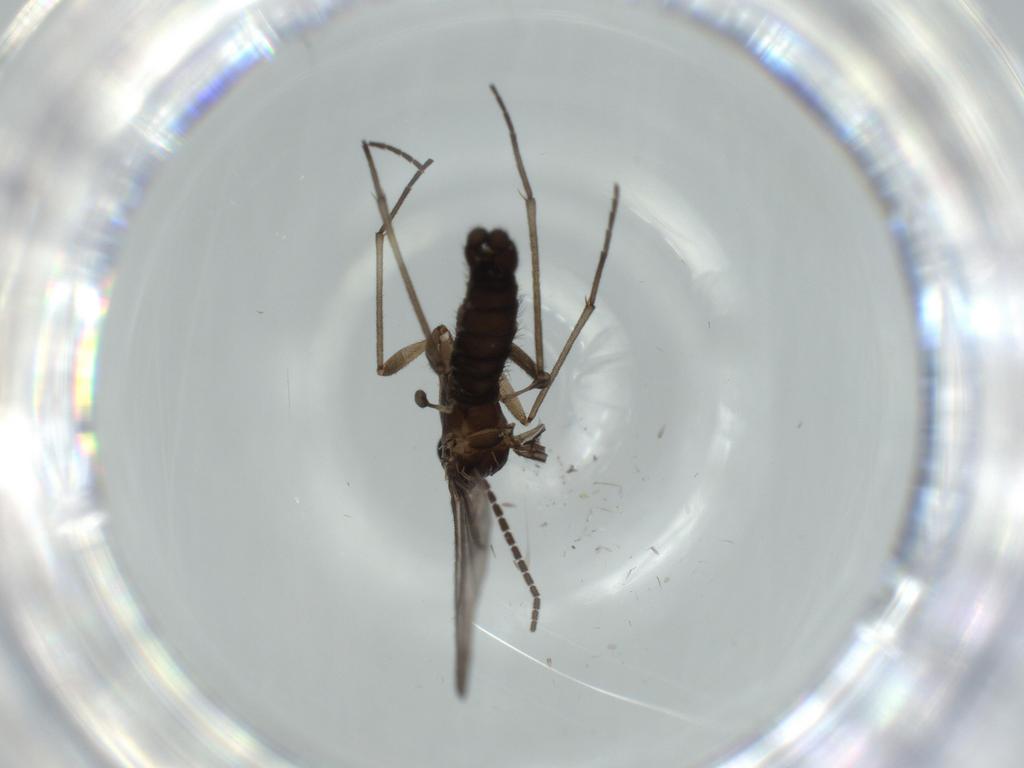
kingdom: Animalia
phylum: Arthropoda
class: Insecta
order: Diptera
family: Sciaridae
